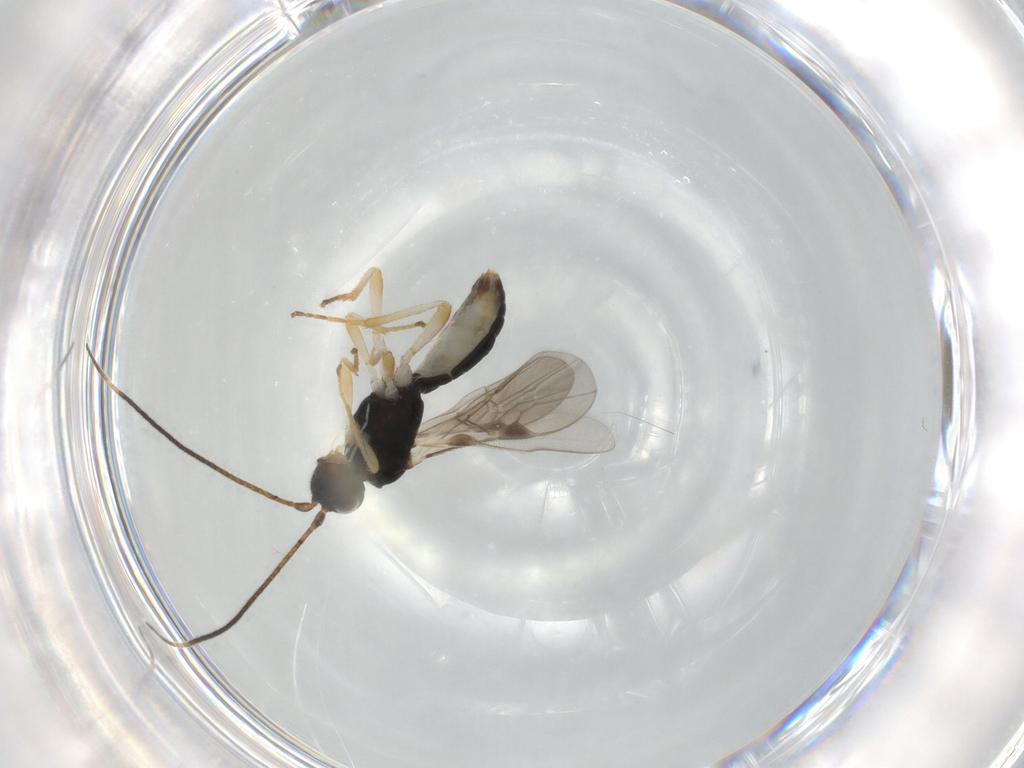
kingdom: Animalia
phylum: Arthropoda
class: Insecta
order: Hymenoptera
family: Braconidae
